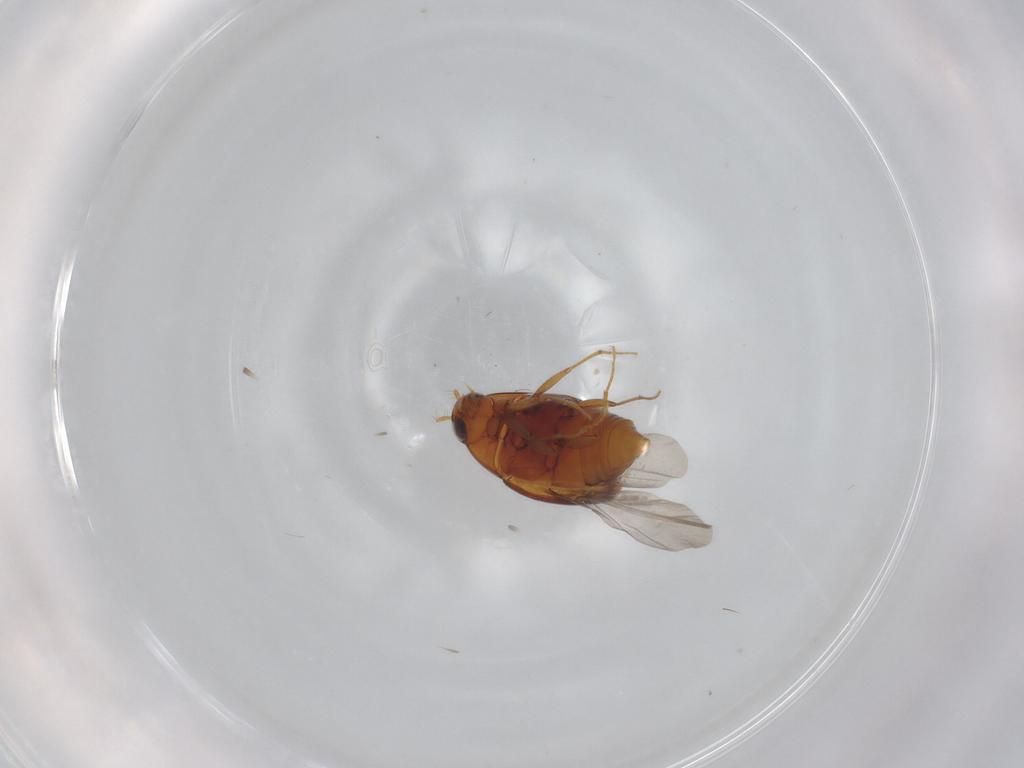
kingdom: Animalia
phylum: Arthropoda
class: Insecta
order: Coleoptera
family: Staphylinidae
